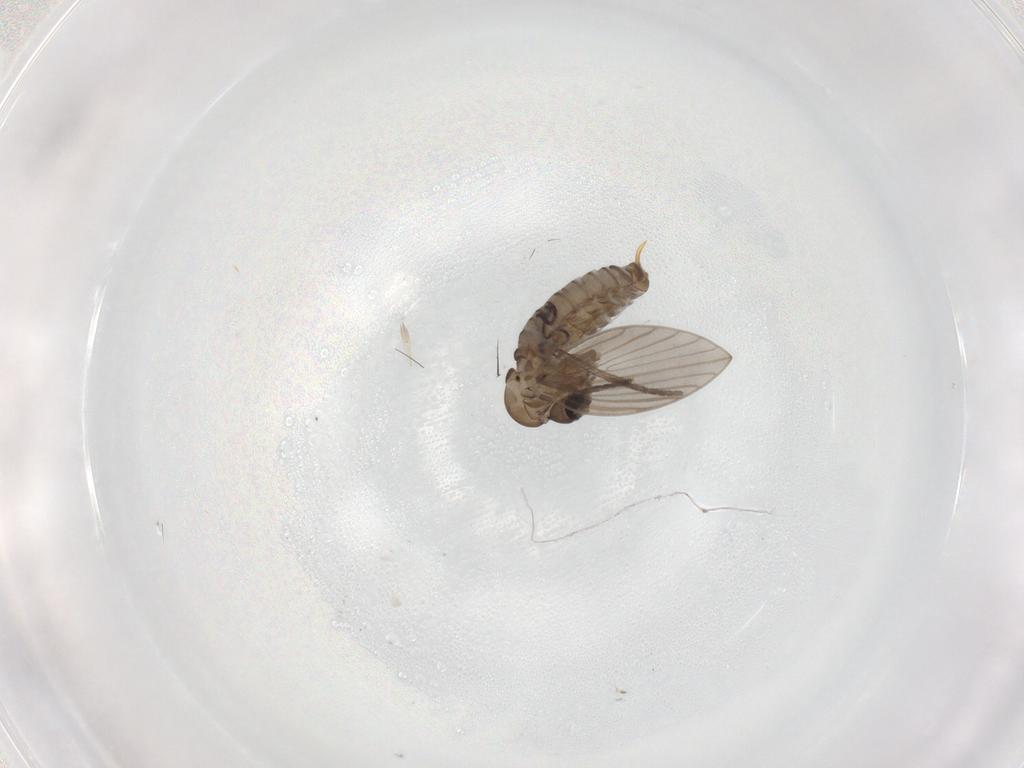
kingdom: Animalia
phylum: Arthropoda
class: Insecta
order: Diptera
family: Psychodidae
